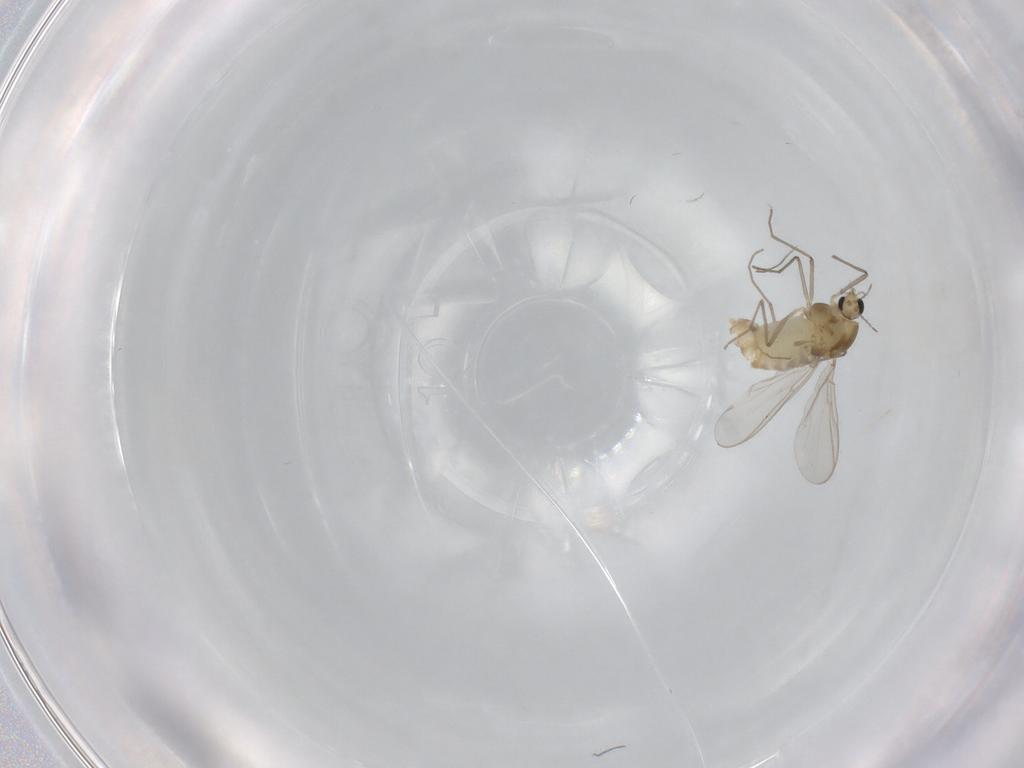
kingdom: Animalia
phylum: Arthropoda
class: Insecta
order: Diptera
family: Chironomidae
